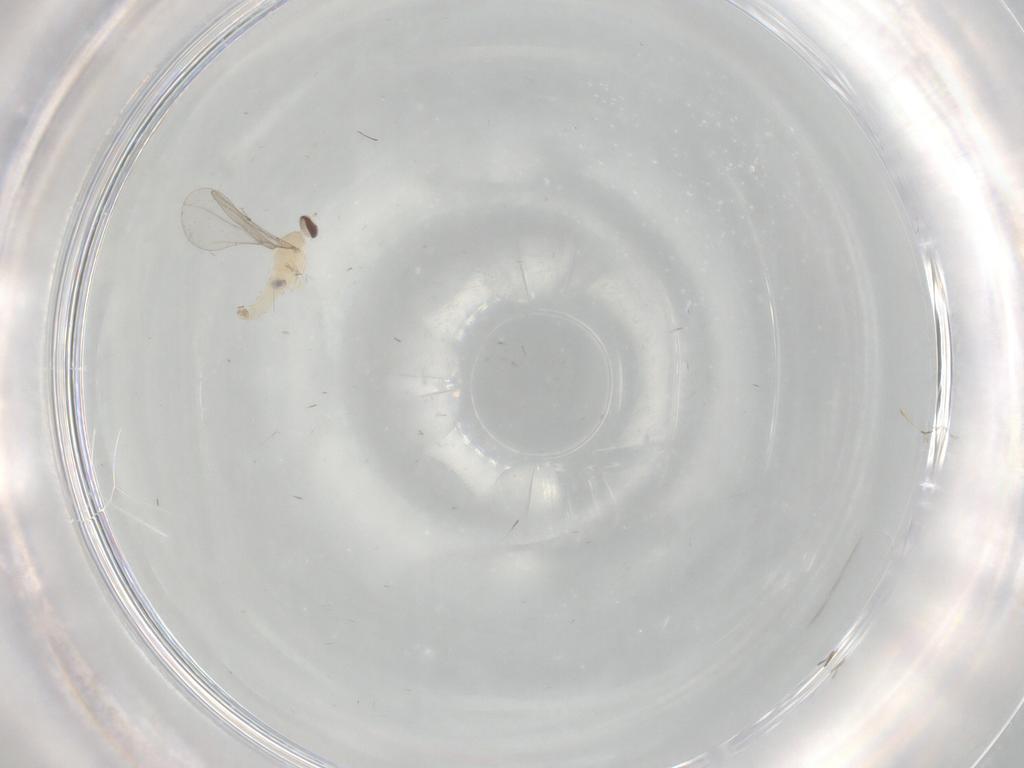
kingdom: Animalia
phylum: Arthropoda
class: Insecta
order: Diptera
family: Cecidomyiidae
